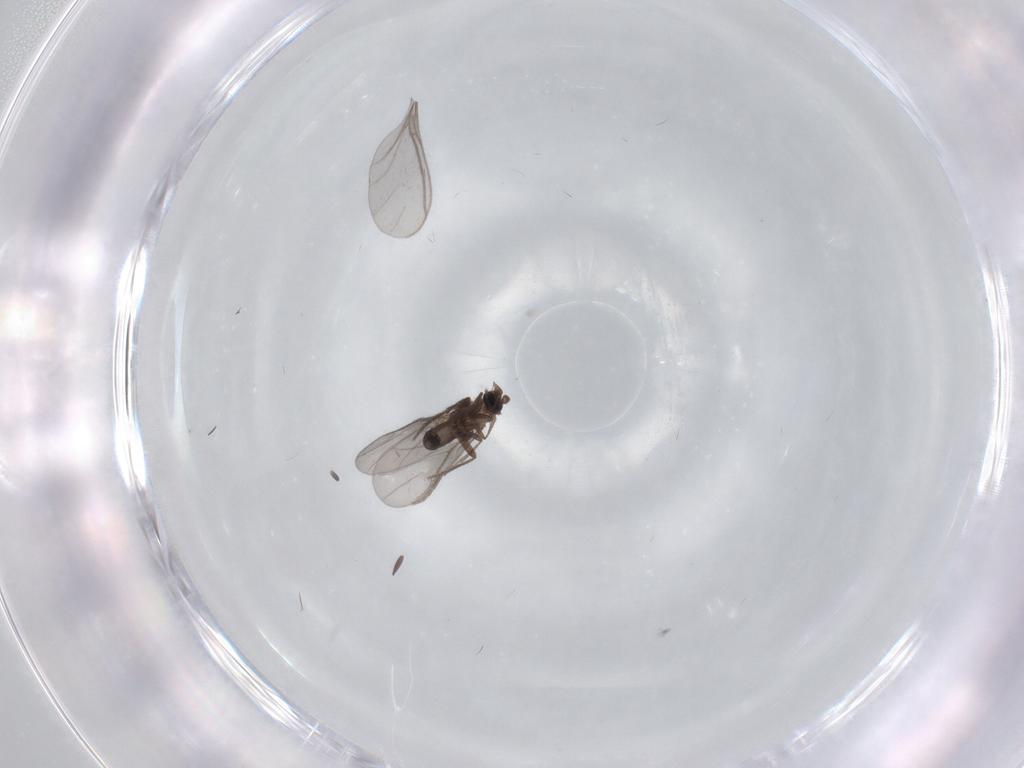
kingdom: Animalia
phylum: Arthropoda
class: Insecta
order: Diptera
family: Phoridae
